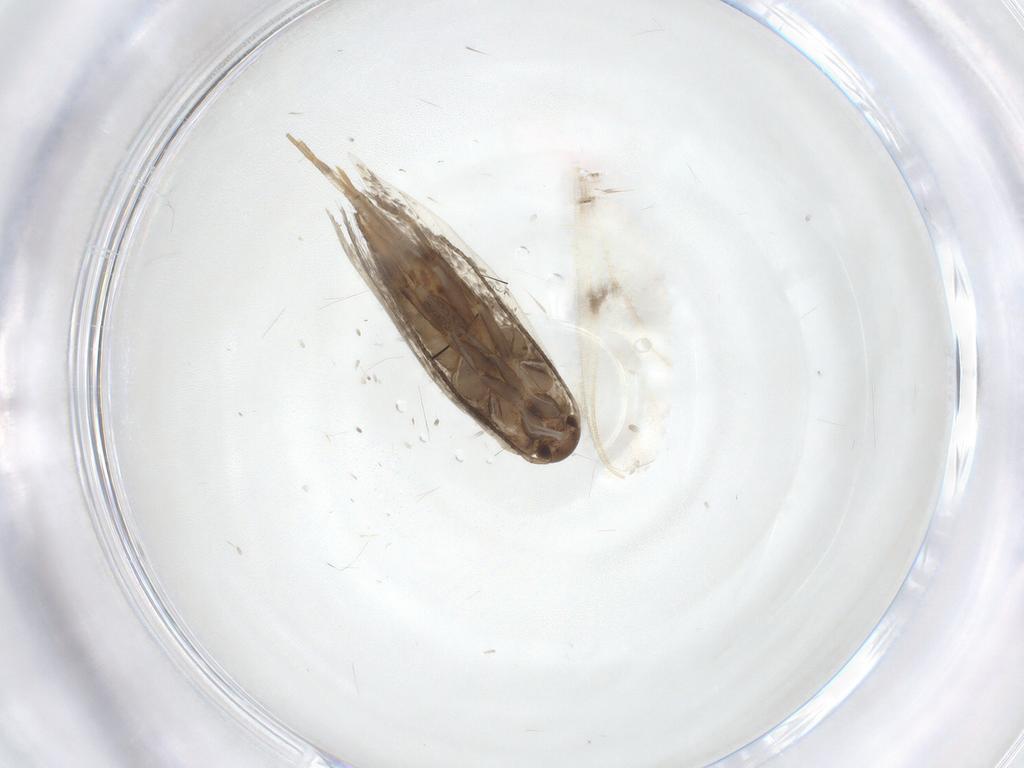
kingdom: Animalia
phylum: Arthropoda
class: Insecta
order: Lepidoptera
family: Elachistidae
